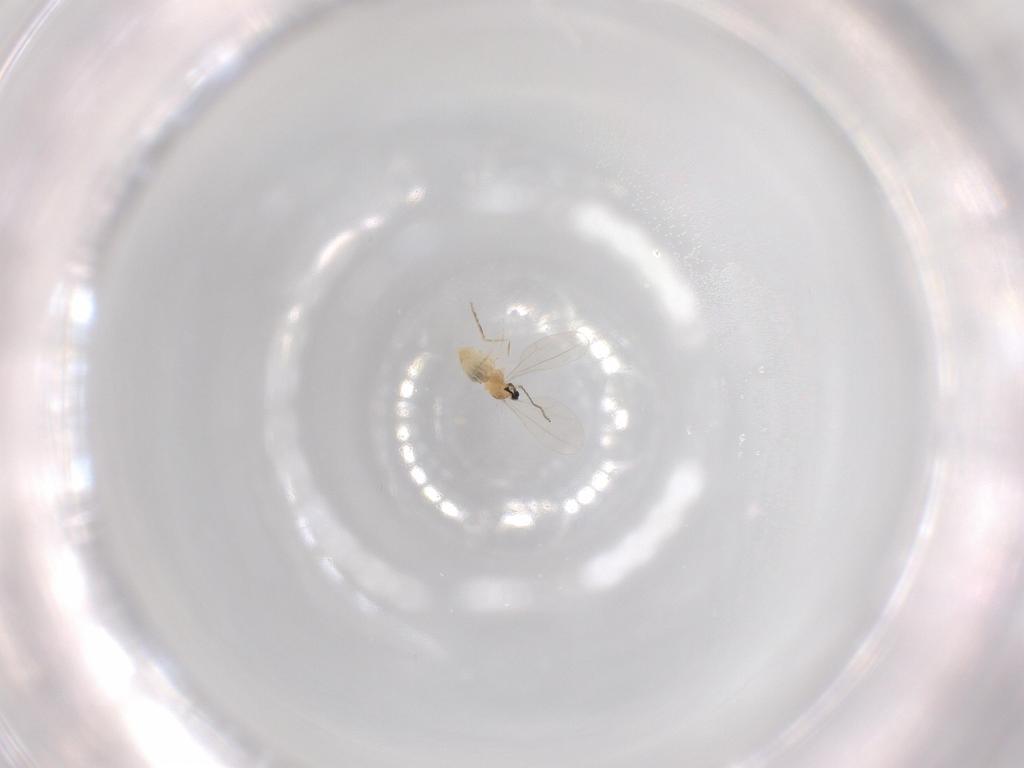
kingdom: Animalia
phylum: Arthropoda
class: Insecta
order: Diptera
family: Cecidomyiidae
